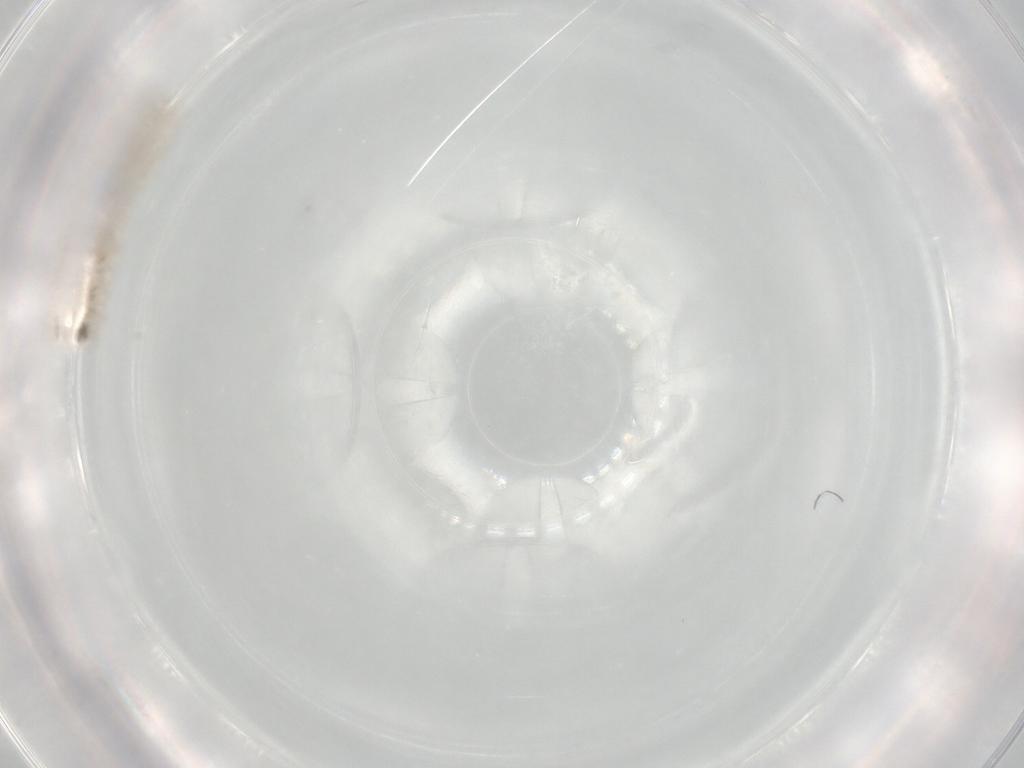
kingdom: Animalia
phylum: Arthropoda
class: Insecta
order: Diptera
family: Chironomidae
